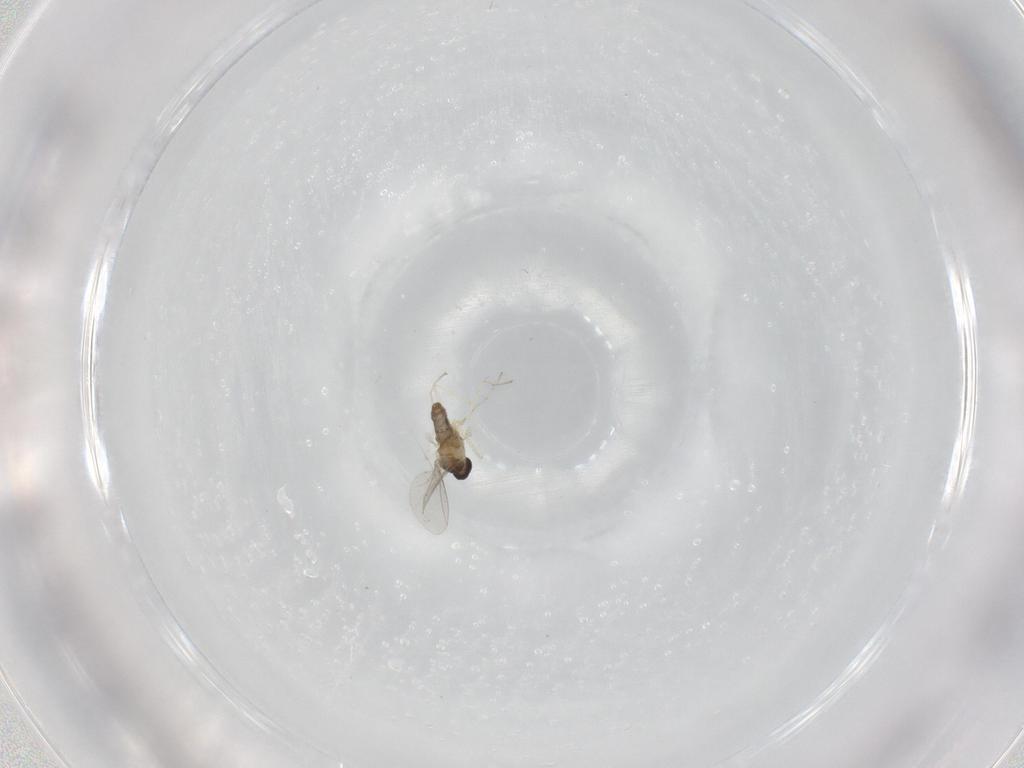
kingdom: Animalia
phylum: Arthropoda
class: Insecta
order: Diptera
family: Cecidomyiidae
